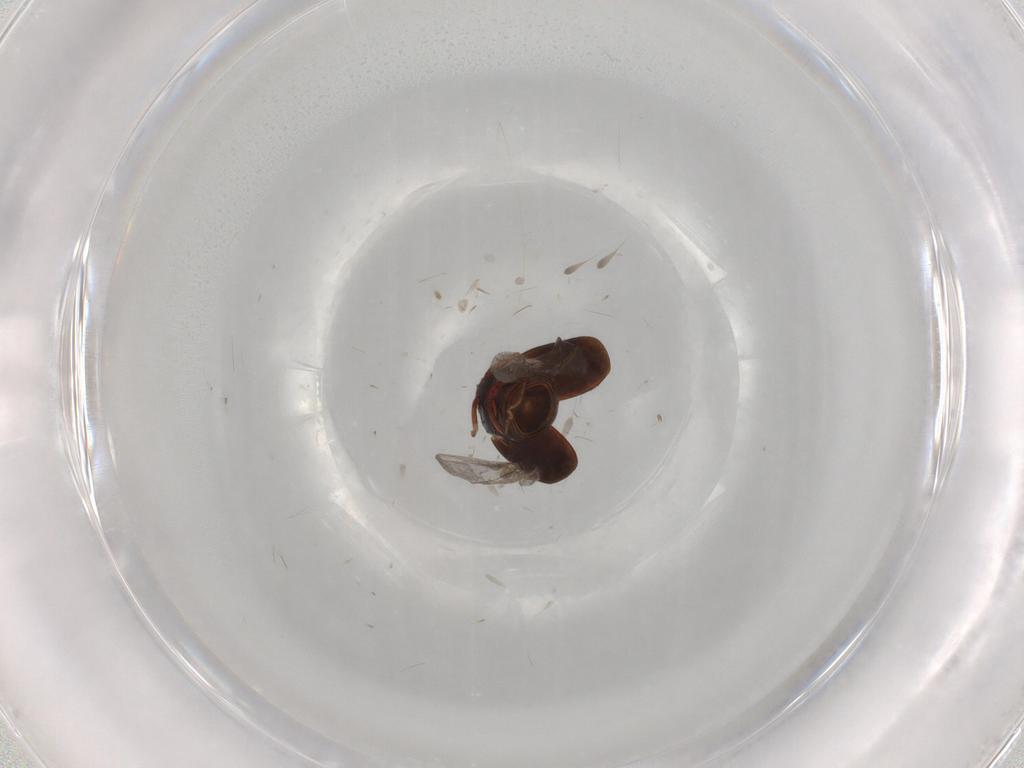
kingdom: Animalia
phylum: Arthropoda
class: Insecta
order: Coleoptera
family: Staphylinidae
